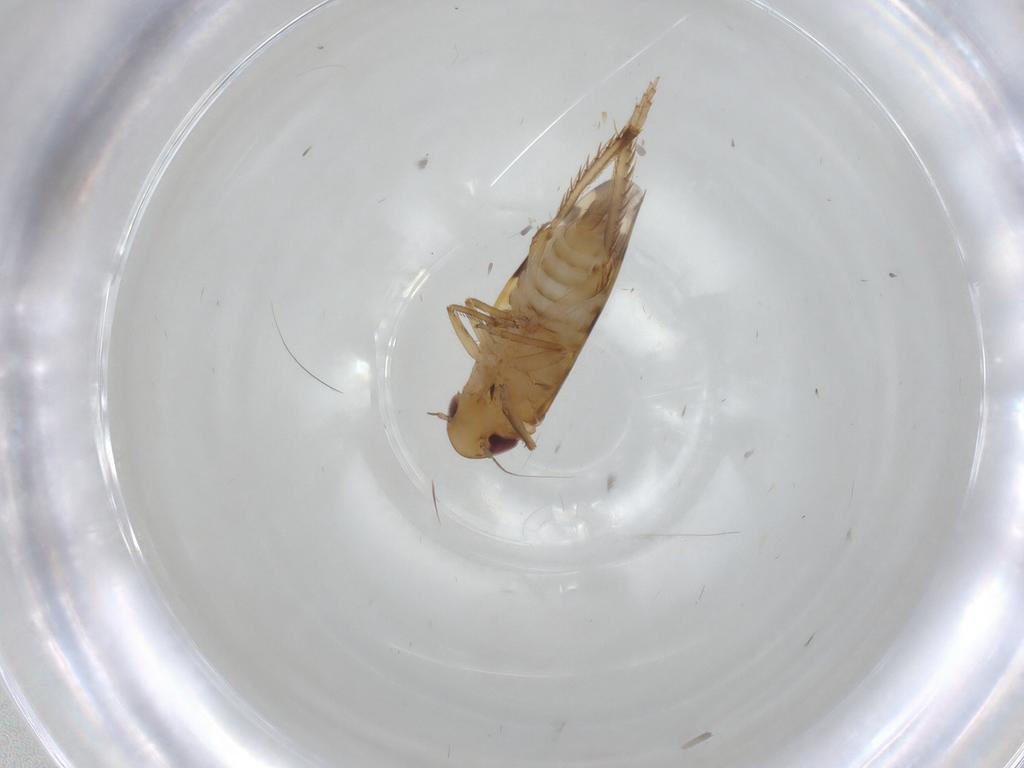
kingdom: Animalia
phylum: Arthropoda
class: Insecta
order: Hemiptera
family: Cicadellidae
